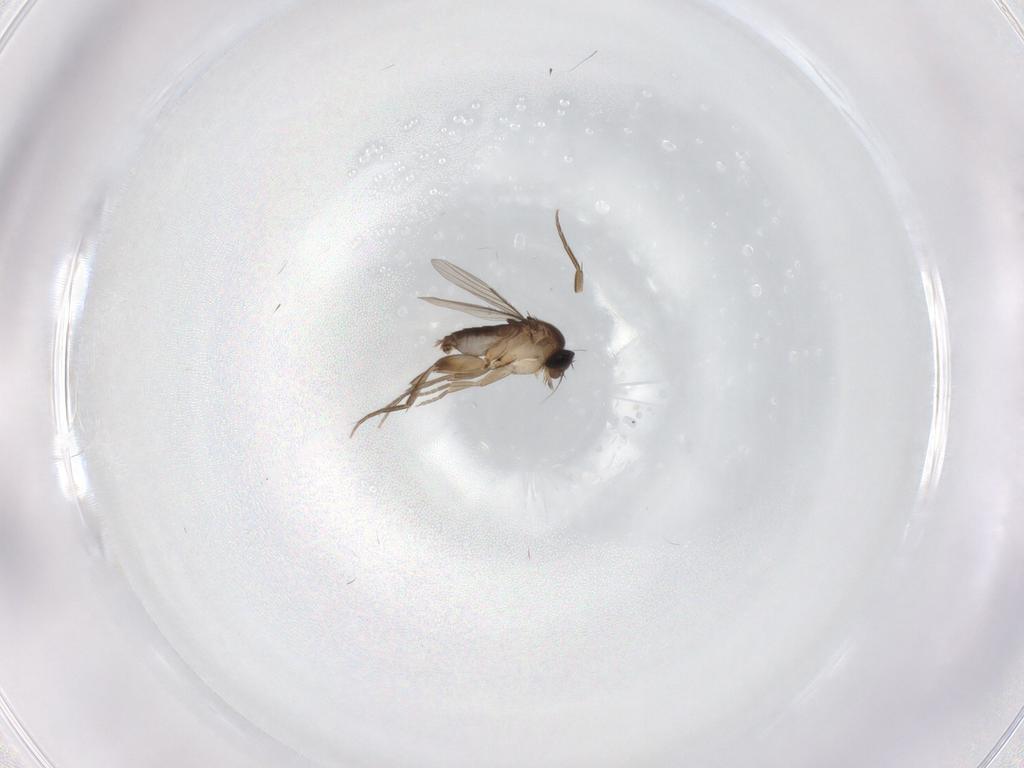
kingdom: Animalia
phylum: Arthropoda
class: Insecta
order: Diptera
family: Phoridae
